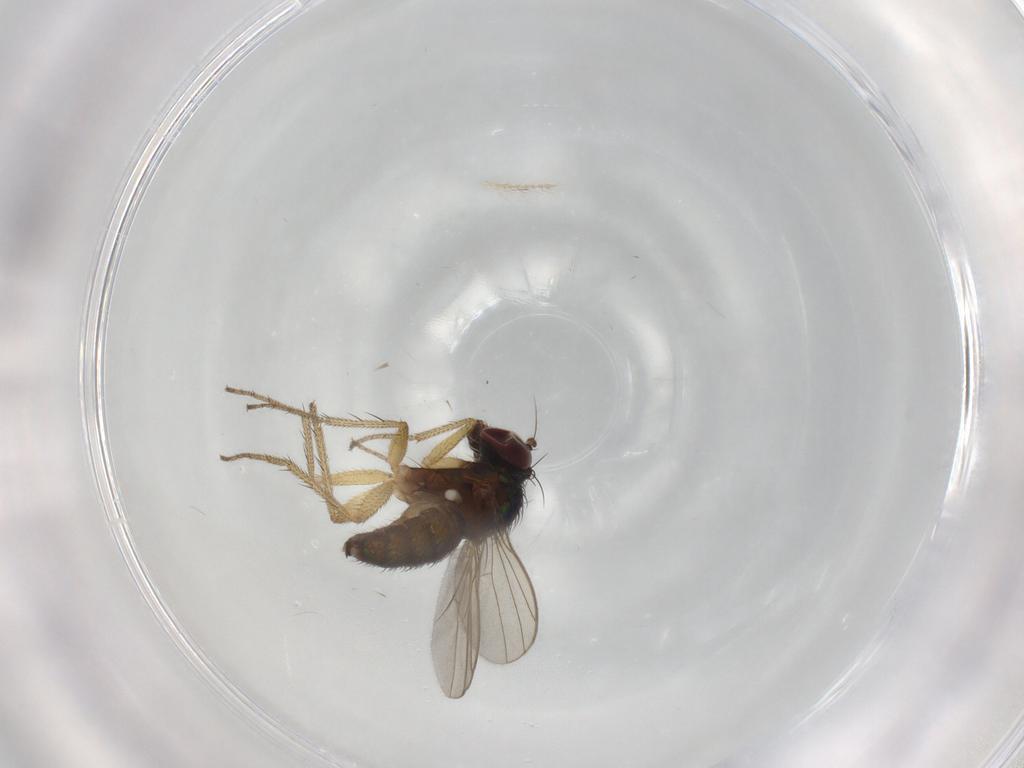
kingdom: Animalia
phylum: Arthropoda
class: Insecta
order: Diptera
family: Dolichopodidae
